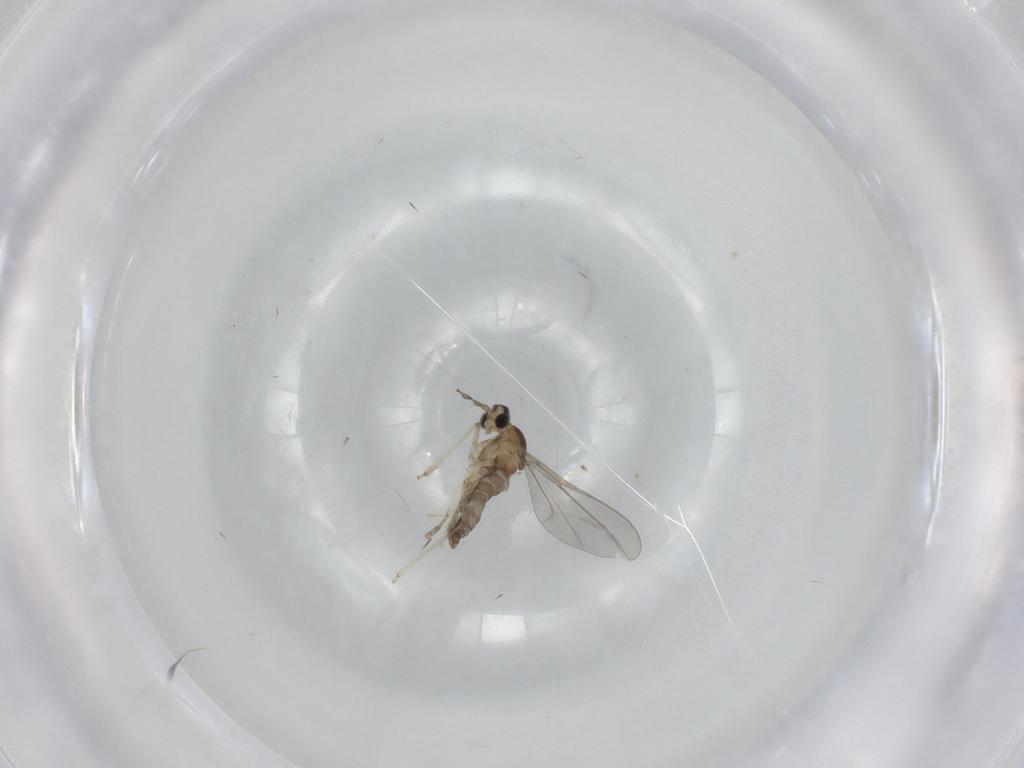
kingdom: Animalia
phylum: Arthropoda
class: Insecta
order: Diptera
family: Cecidomyiidae
